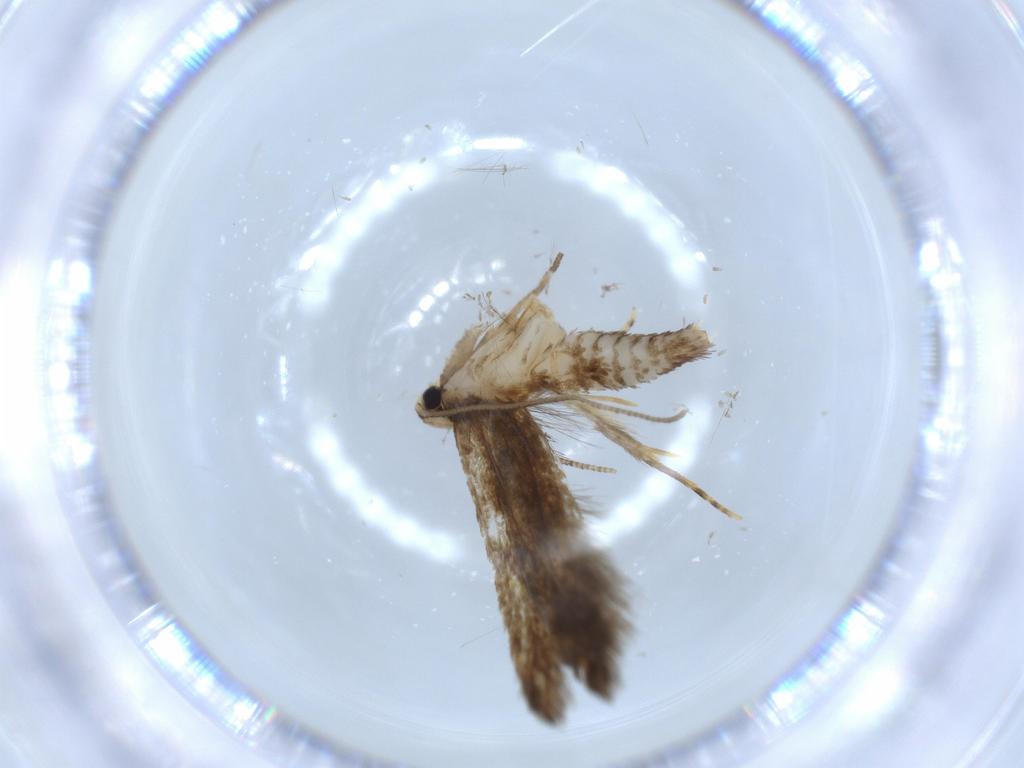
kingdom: Animalia
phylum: Arthropoda
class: Insecta
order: Lepidoptera
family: Tineidae
